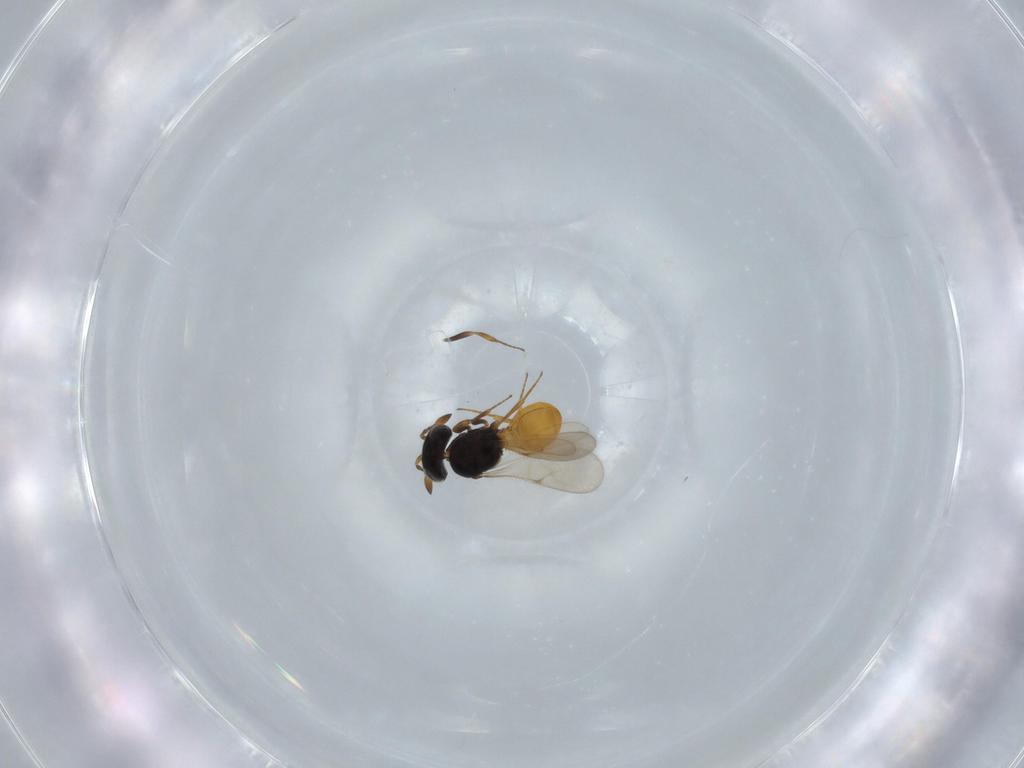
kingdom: Animalia
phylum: Arthropoda
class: Insecta
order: Hymenoptera
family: Scelionidae
